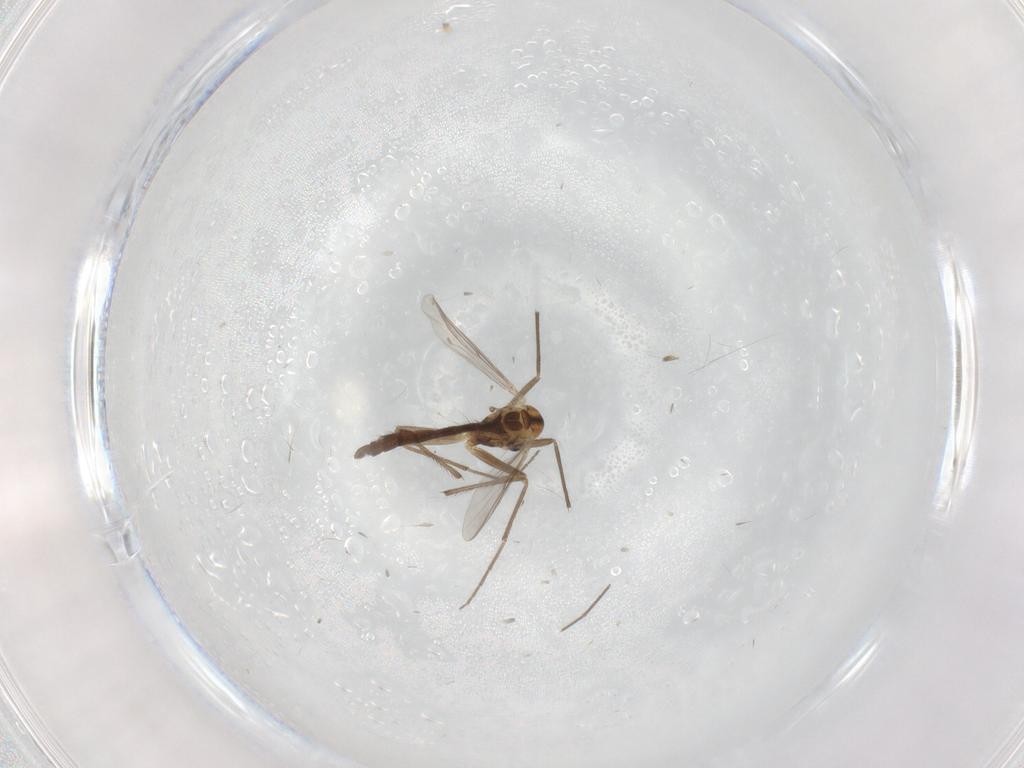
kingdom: Animalia
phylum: Arthropoda
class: Insecta
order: Diptera
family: Chironomidae
